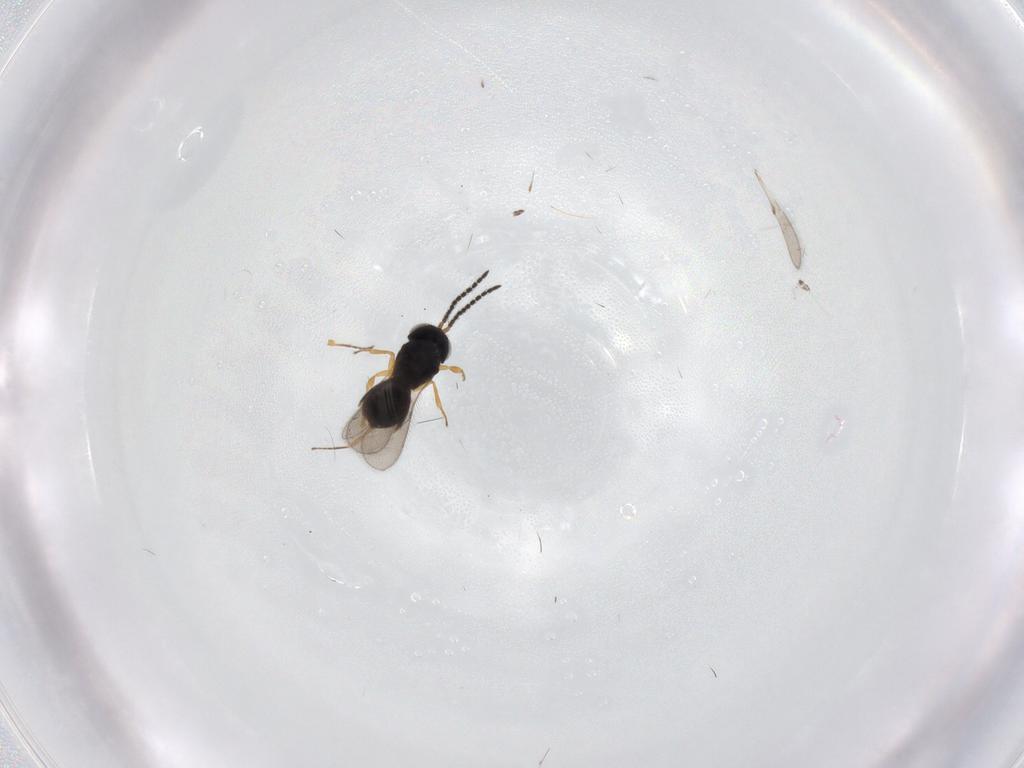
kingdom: Animalia
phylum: Arthropoda
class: Insecta
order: Hymenoptera
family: Scelionidae
